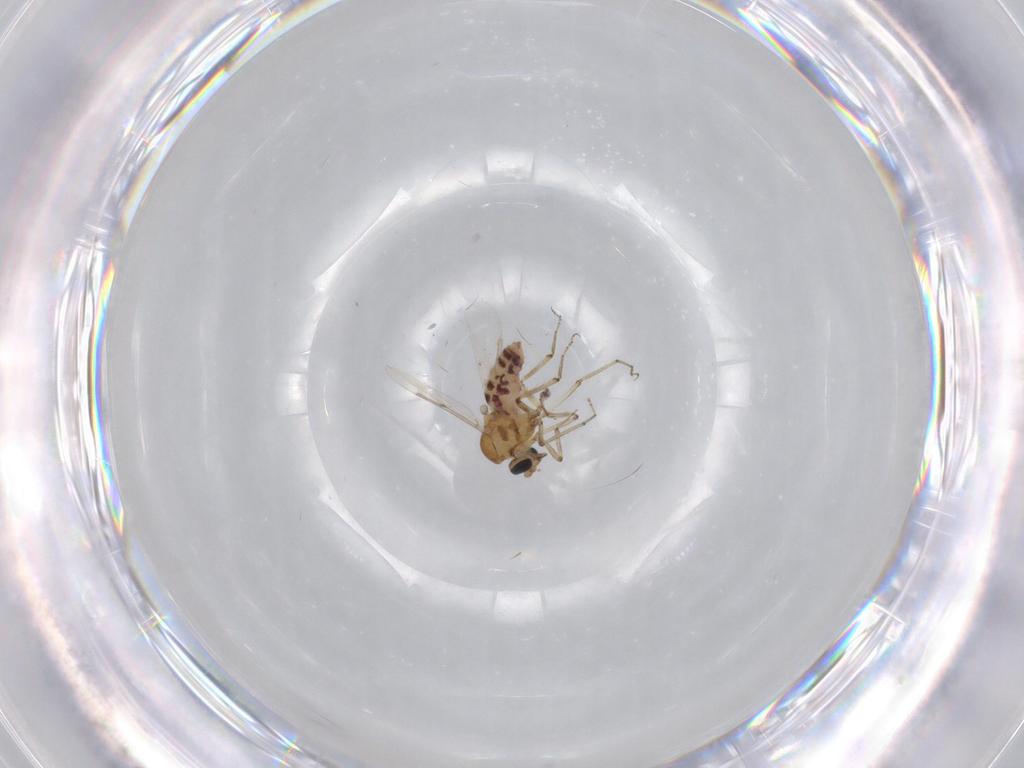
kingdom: Animalia
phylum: Arthropoda
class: Insecta
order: Diptera
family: Ceratopogonidae
